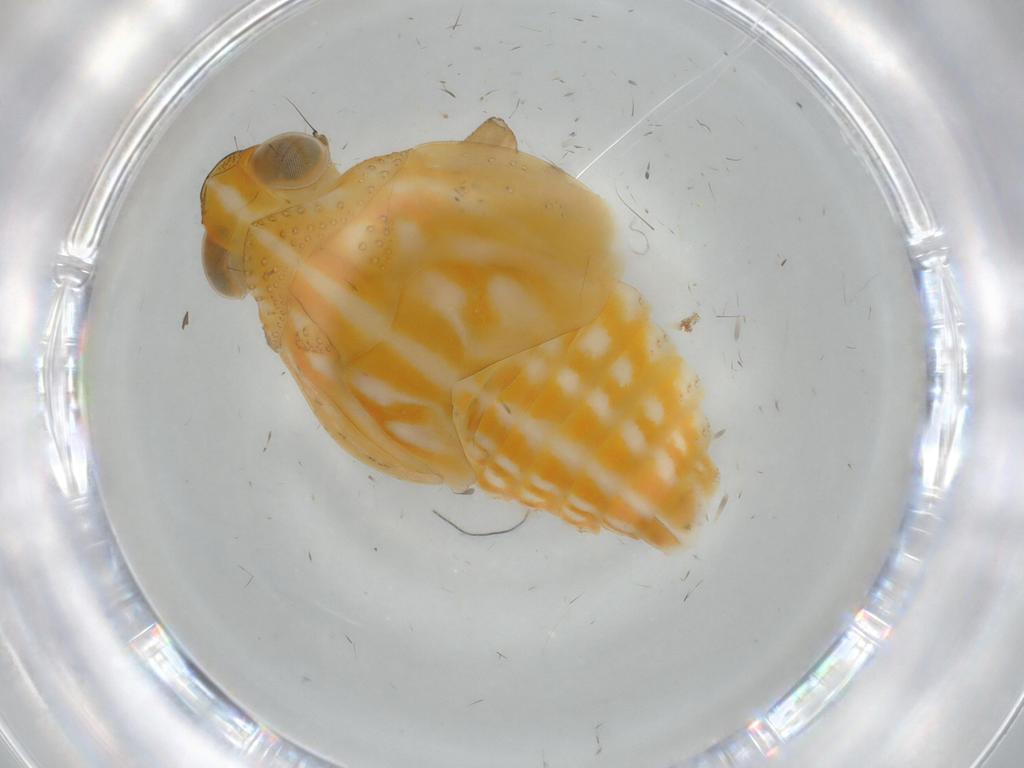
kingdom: Animalia
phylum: Arthropoda
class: Insecta
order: Hemiptera
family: Issidae
